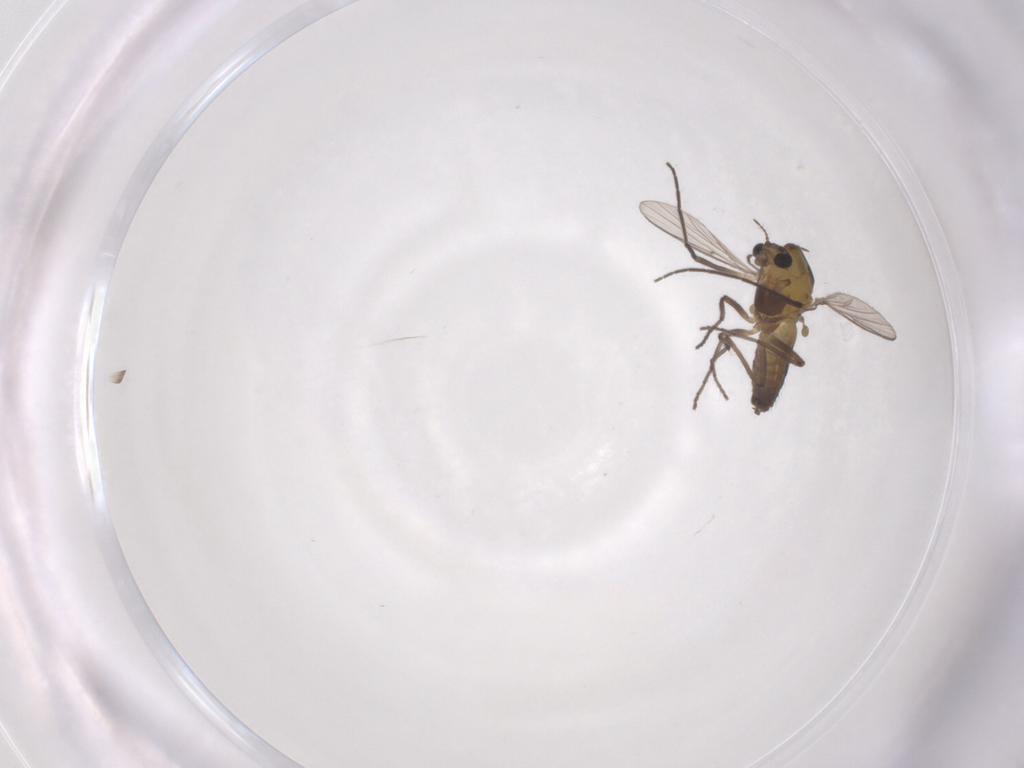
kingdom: Animalia
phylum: Arthropoda
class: Insecta
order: Diptera
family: Chironomidae
